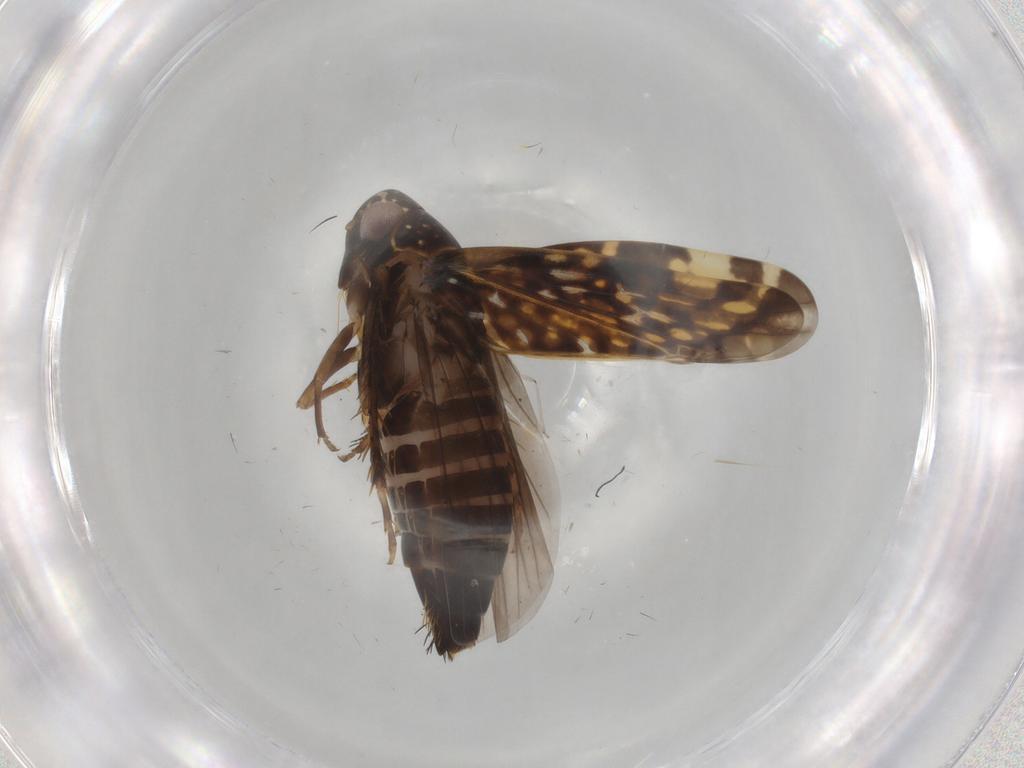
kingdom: Animalia
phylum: Arthropoda
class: Insecta
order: Hemiptera
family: Cicadellidae
